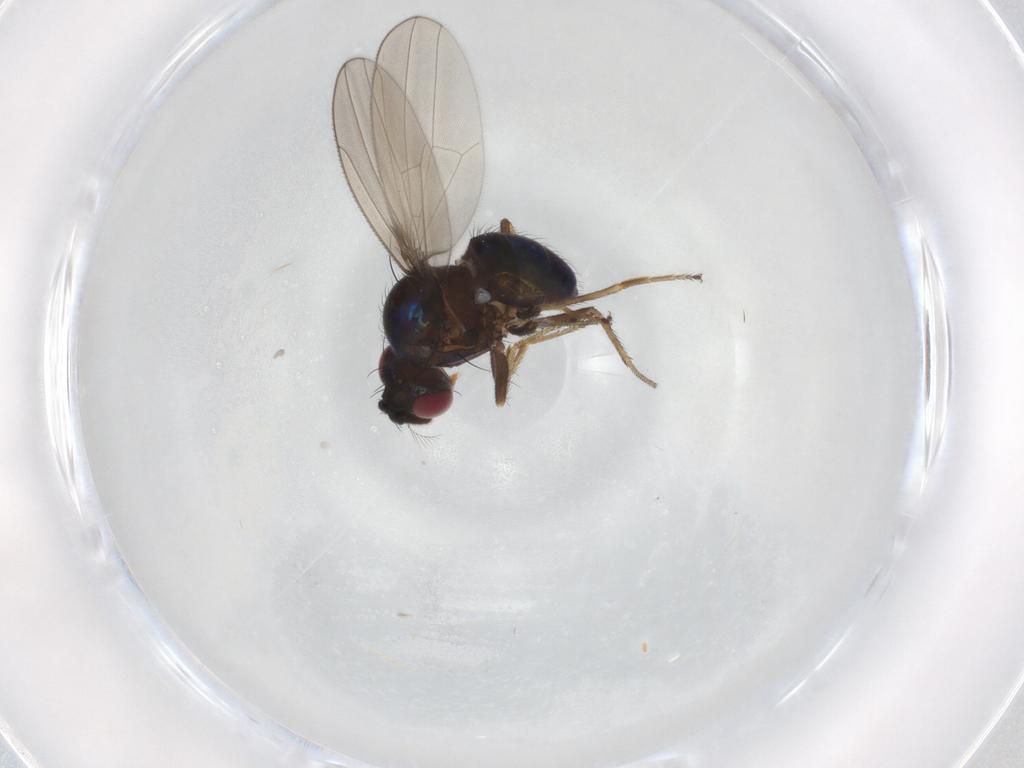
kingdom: Animalia
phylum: Arthropoda
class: Insecta
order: Diptera
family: Ephydridae
